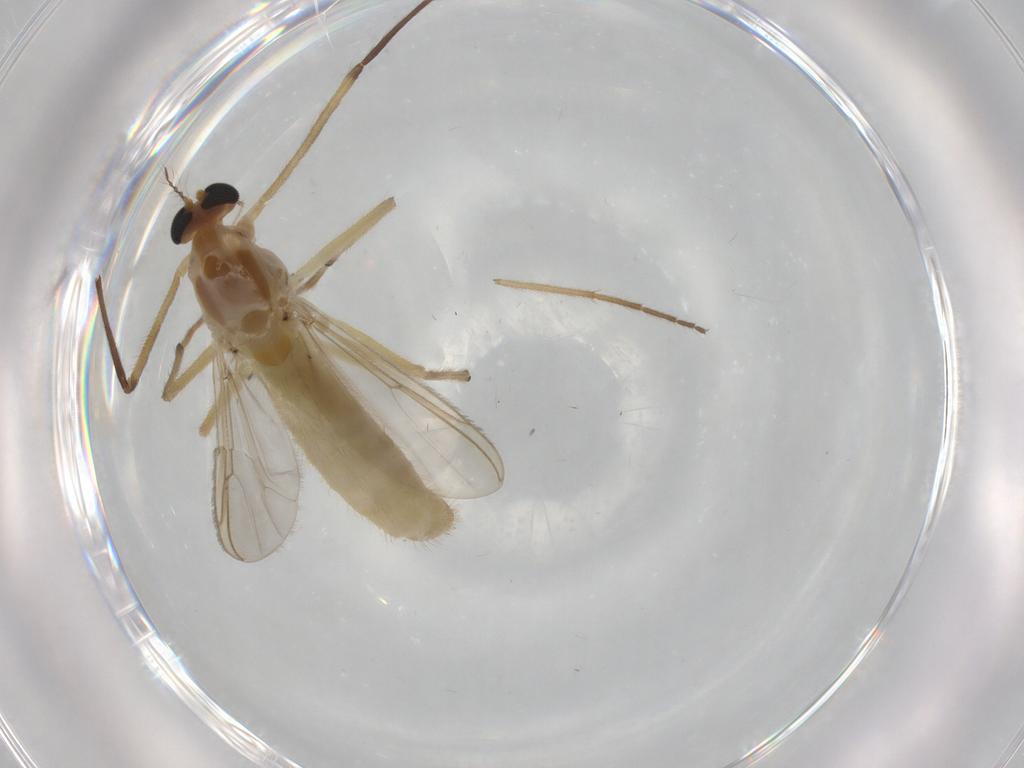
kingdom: Animalia
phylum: Arthropoda
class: Insecta
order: Diptera
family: Chironomidae
